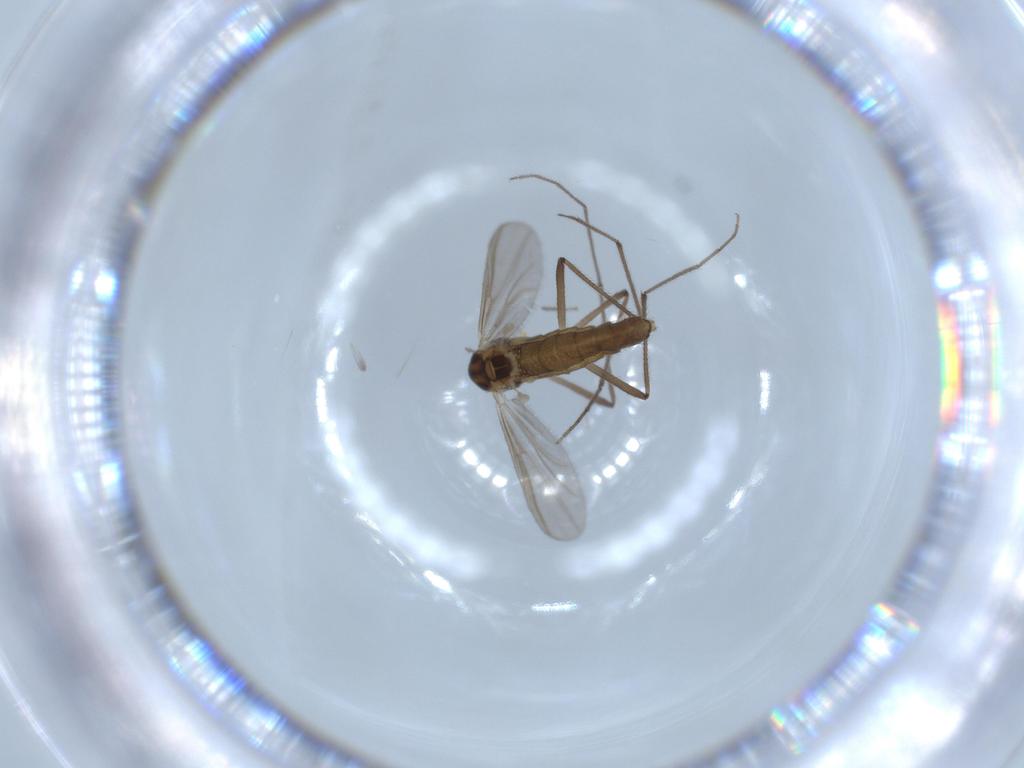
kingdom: Animalia
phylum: Arthropoda
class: Insecta
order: Diptera
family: Chironomidae
